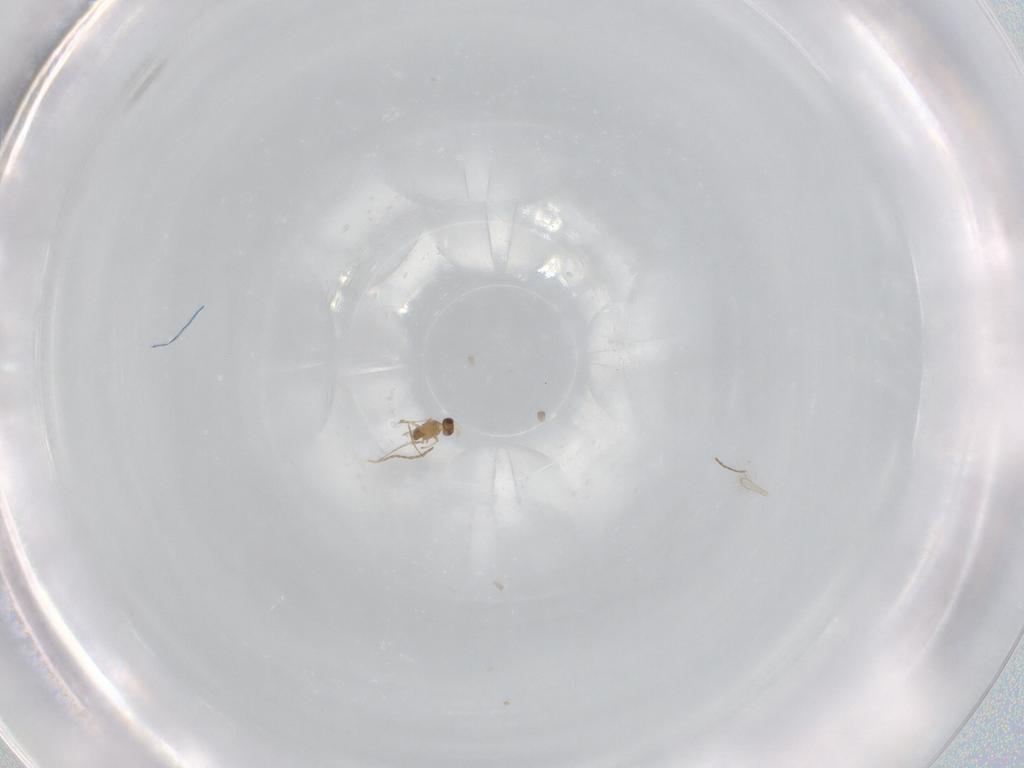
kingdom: Animalia
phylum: Arthropoda
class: Insecta
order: Hymenoptera
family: Mymaridae
